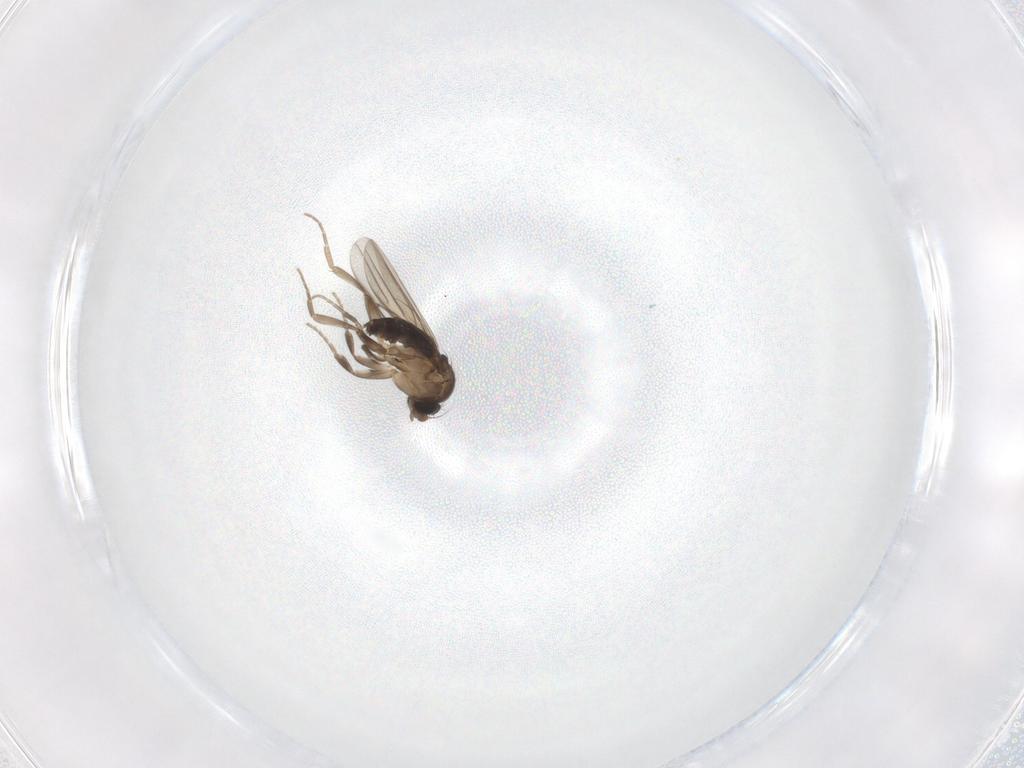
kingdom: Animalia
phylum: Arthropoda
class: Insecta
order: Diptera
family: Phoridae
